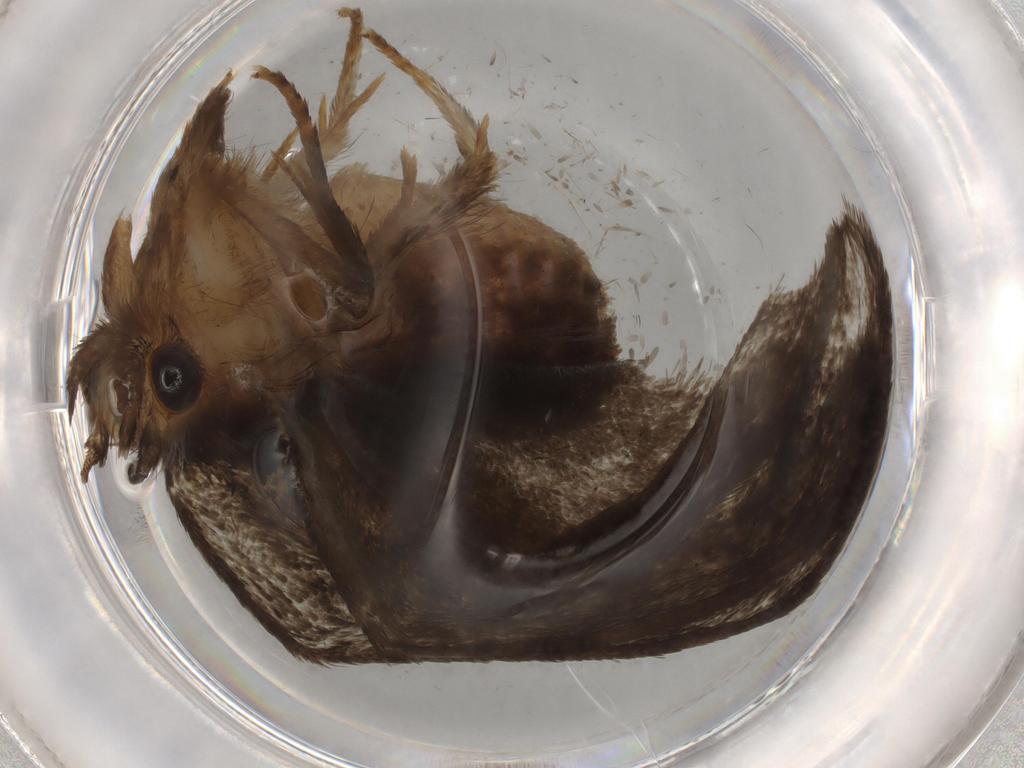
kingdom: Animalia
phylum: Arthropoda
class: Insecta
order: Lepidoptera
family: Tineidae
